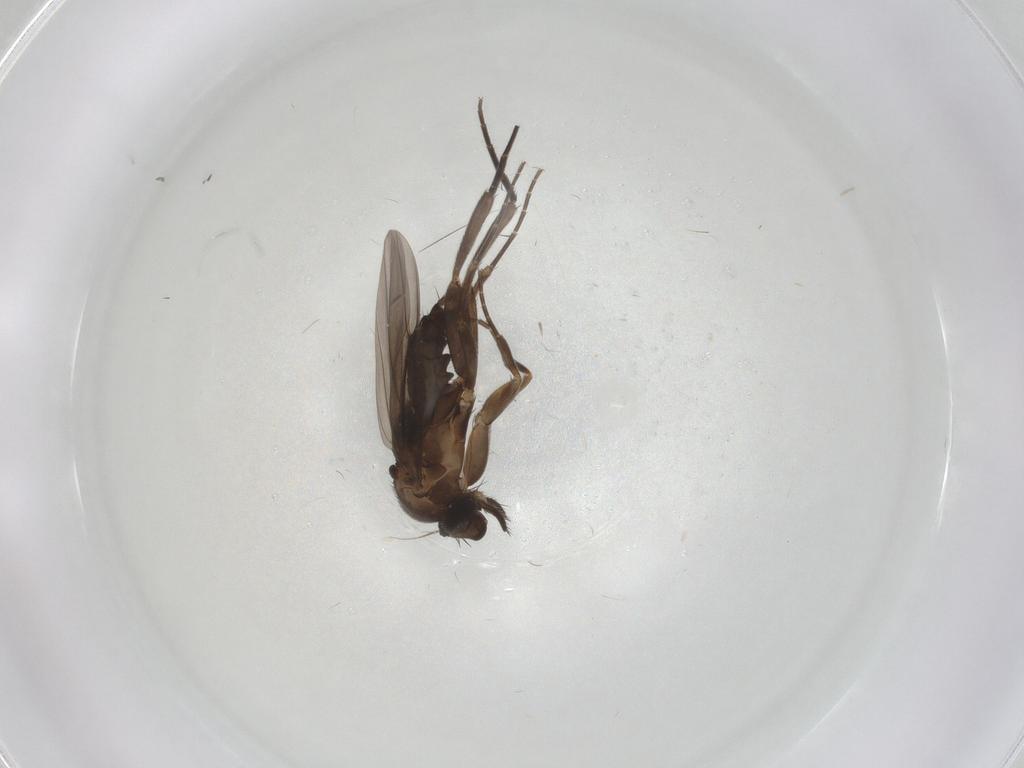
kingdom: Animalia
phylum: Arthropoda
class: Insecta
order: Diptera
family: Phoridae
